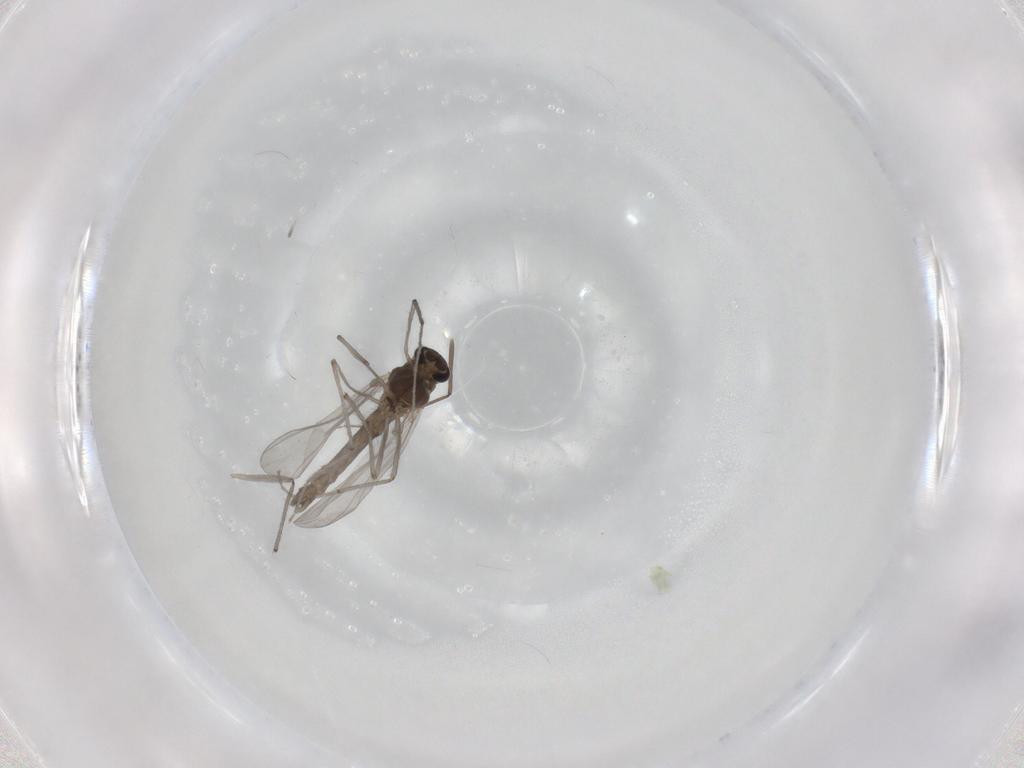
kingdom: Animalia
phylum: Arthropoda
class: Insecta
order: Diptera
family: Chironomidae
